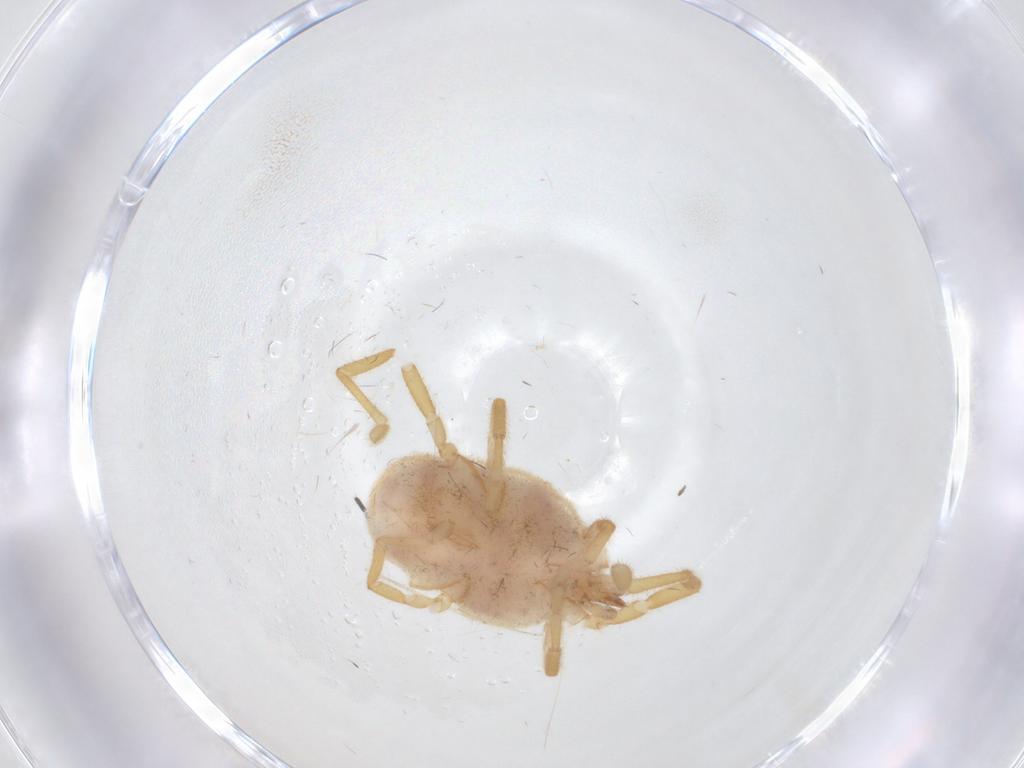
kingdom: Animalia
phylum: Arthropoda
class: Arachnida
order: Trombidiformes
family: Erythraeidae
